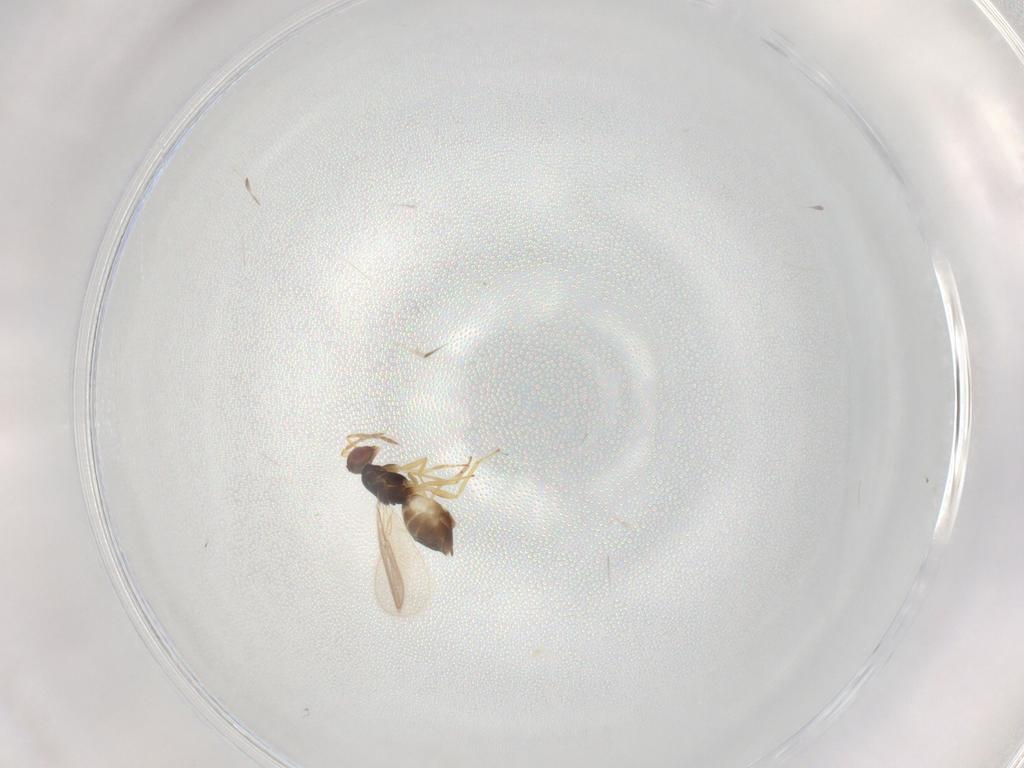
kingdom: Animalia
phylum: Arthropoda
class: Insecta
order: Hymenoptera
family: Eulophidae
